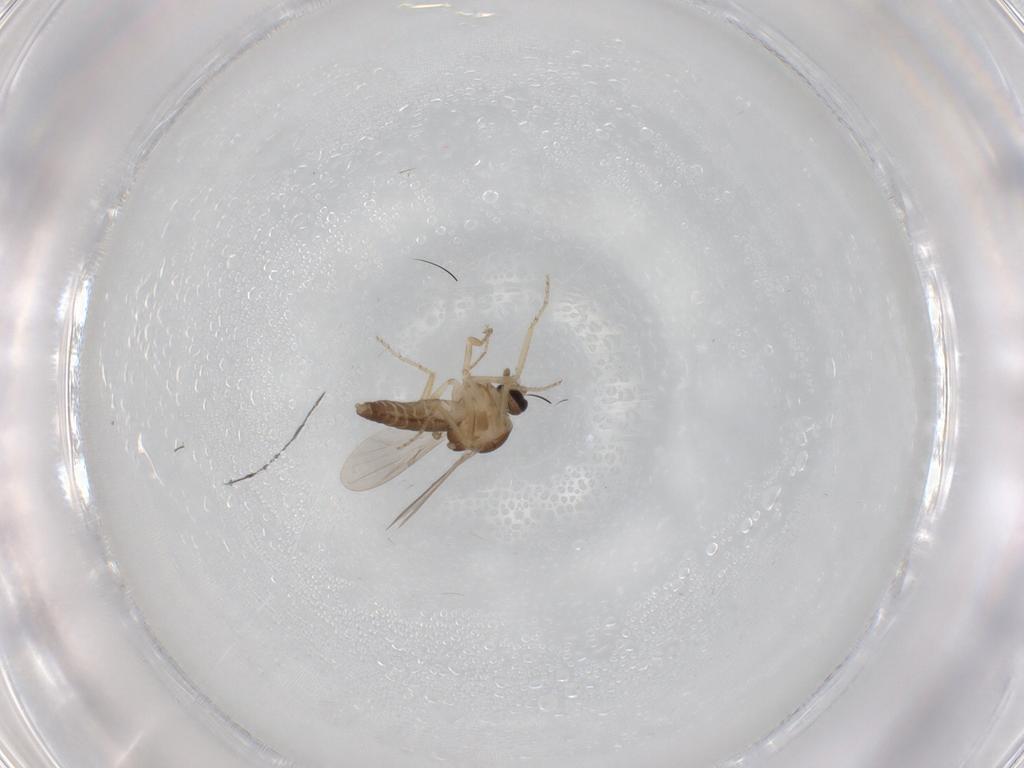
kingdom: Animalia
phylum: Arthropoda
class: Insecta
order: Diptera
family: Ceratopogonidae
